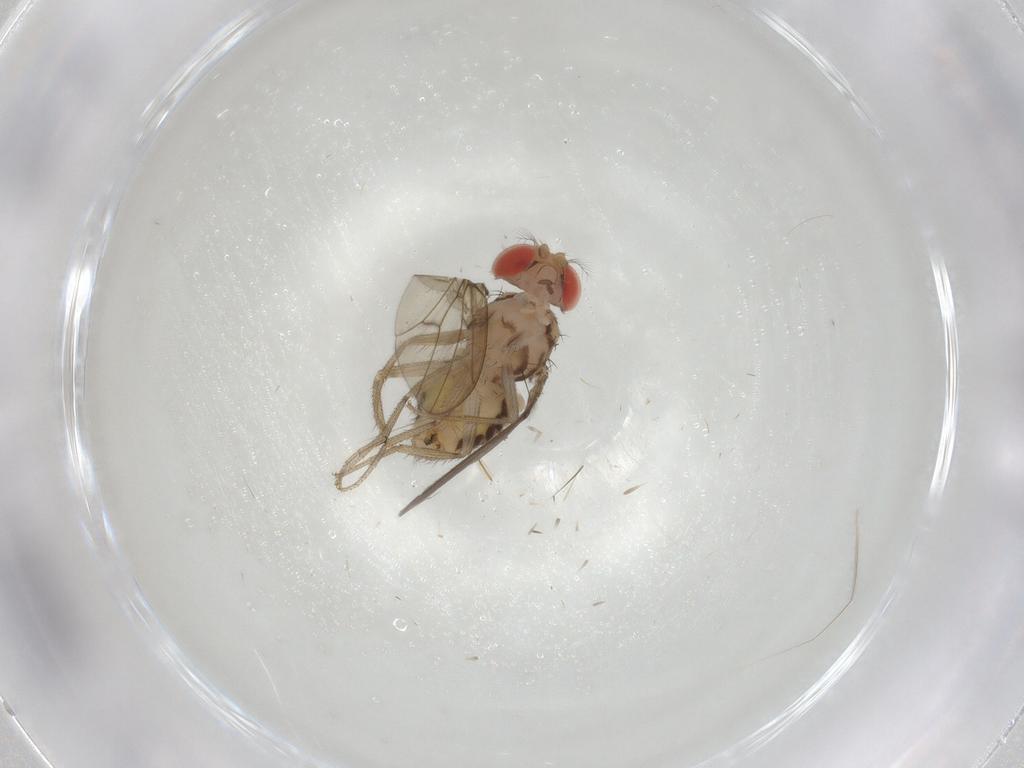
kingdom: Animalia
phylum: Arthropoda
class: Insecta
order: Diptera
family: Drosophilidae
